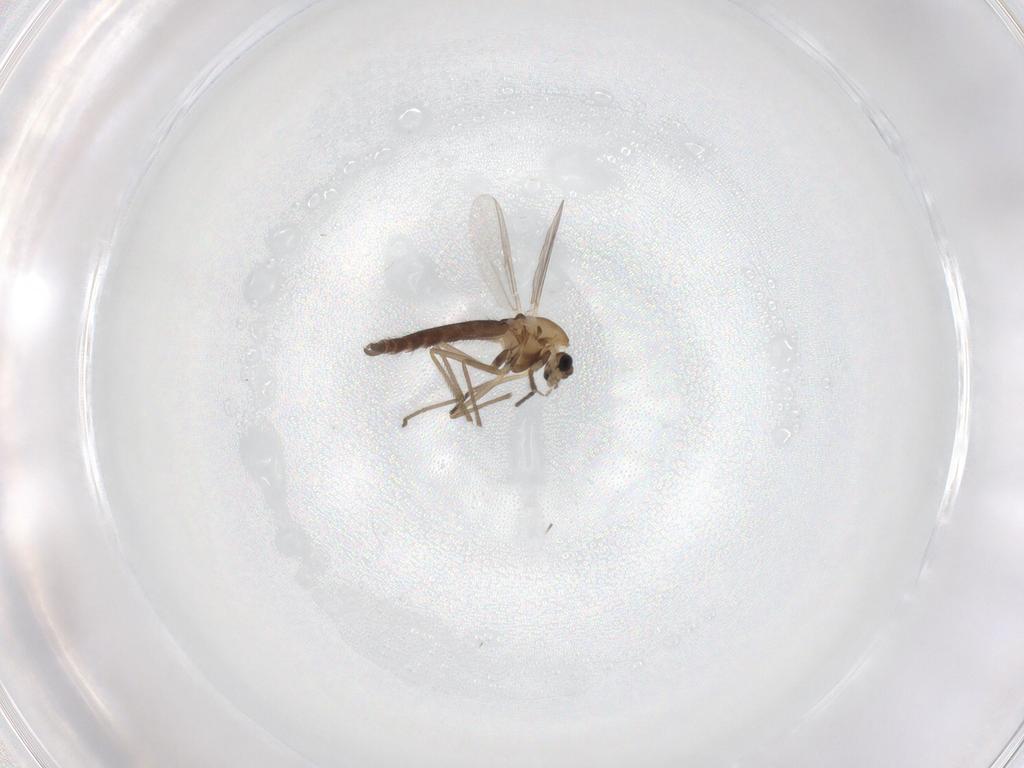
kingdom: Animalia
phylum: Arthropoda
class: Insecta
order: Diptera
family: Chironomidae
